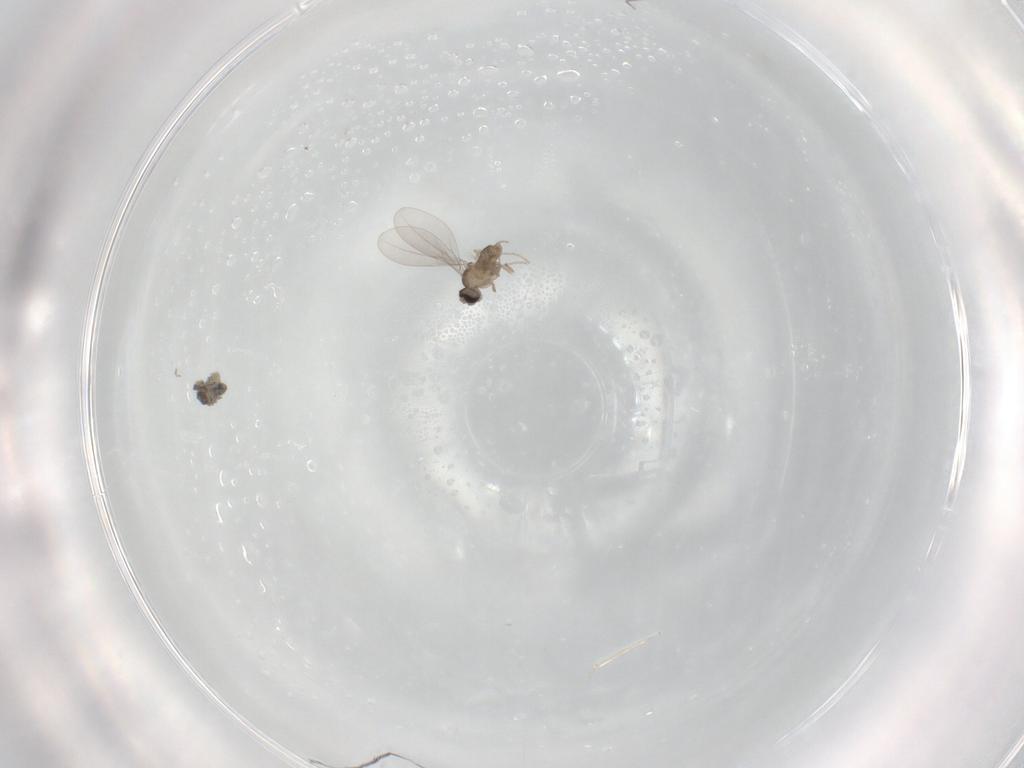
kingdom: Animalia
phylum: Arthropoda
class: Insecta
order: Diptera
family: Cecidomyiidae
